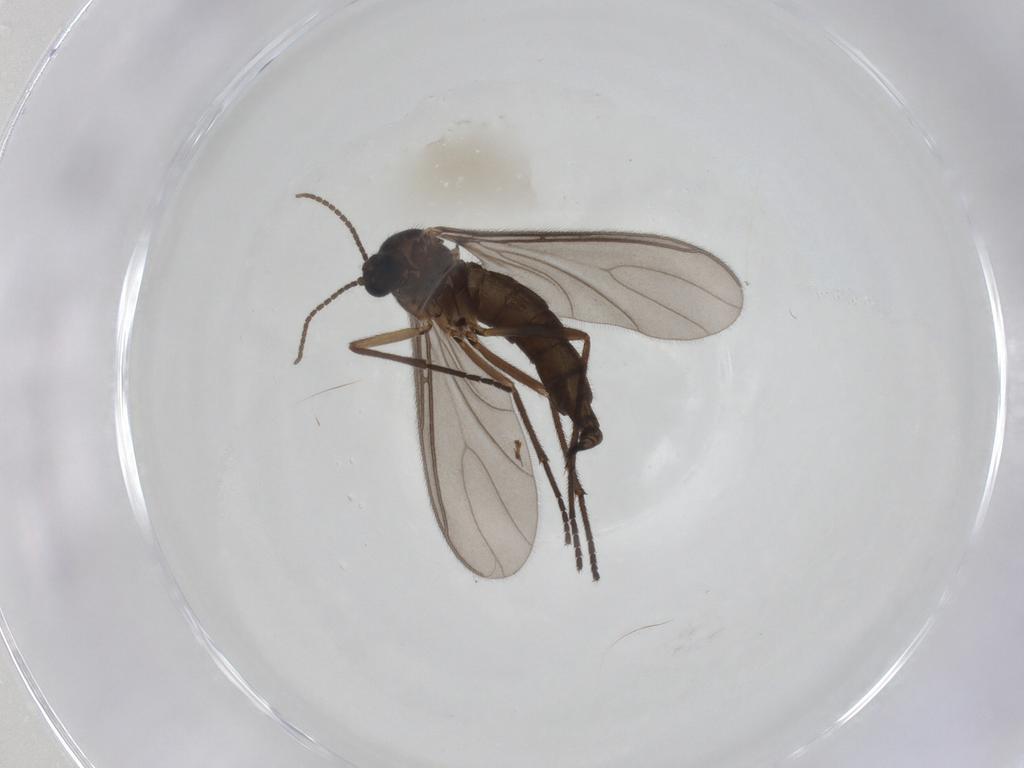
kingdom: Animalia
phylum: Arthropoda
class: Insecta
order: Diptera
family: Sciaridae
